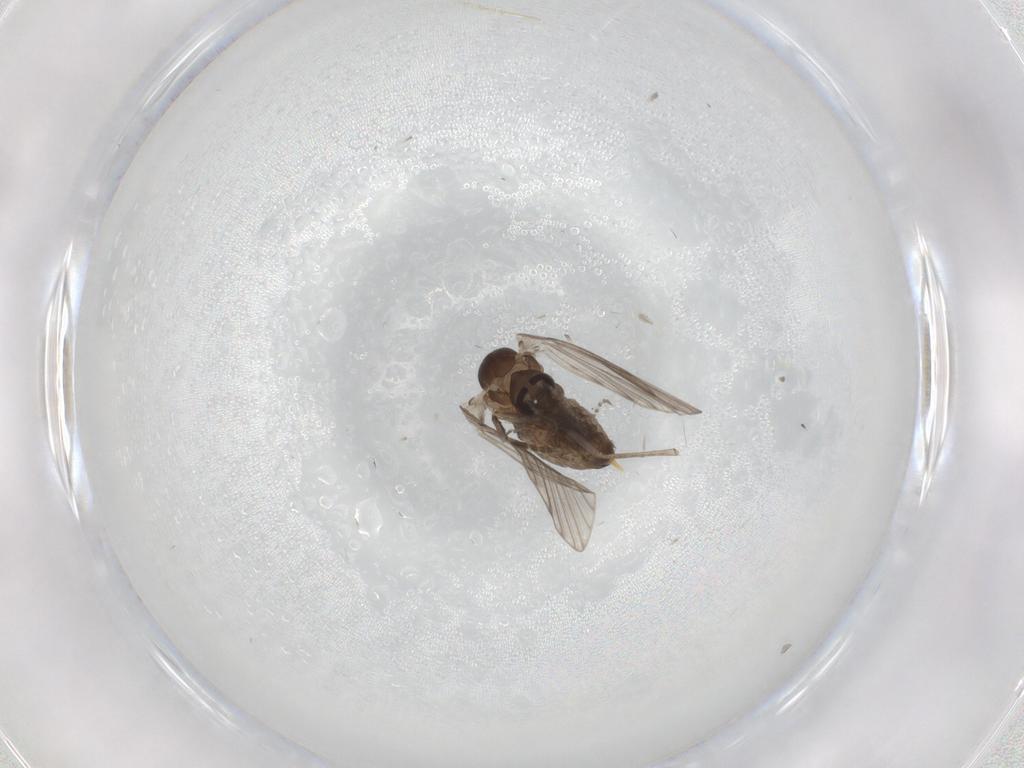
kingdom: Animalia
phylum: Arthropoda
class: Insecta
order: Diptera
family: Psychodidae
